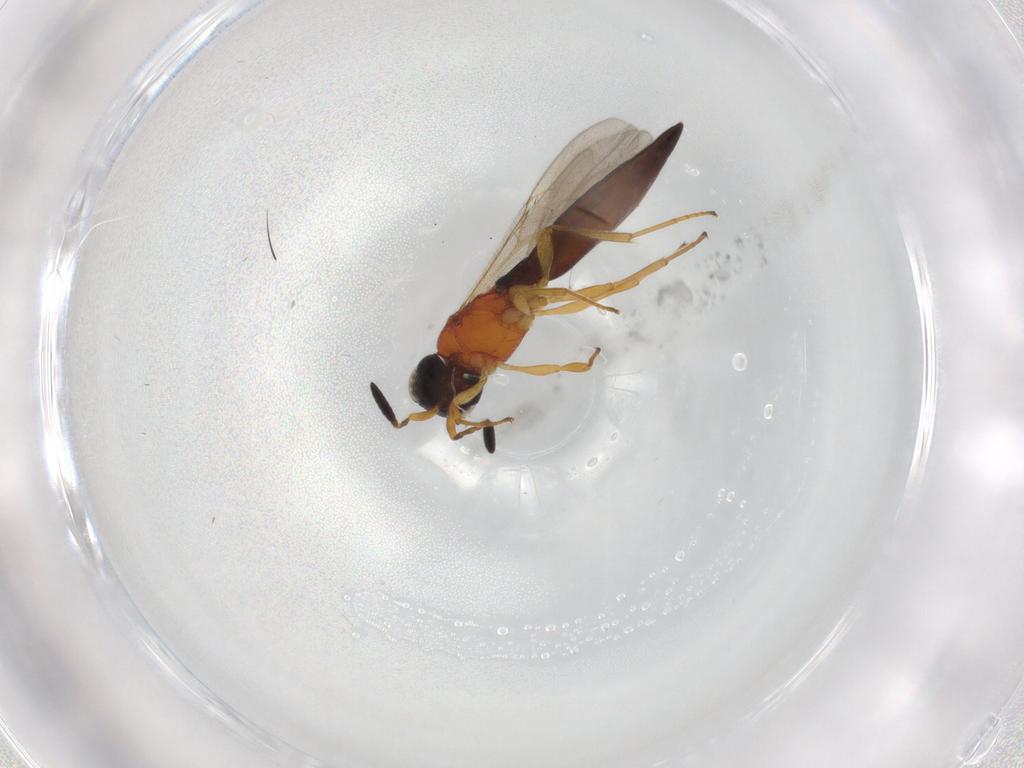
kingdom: Animalia
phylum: Arthropoda
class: Insecta
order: Hymenoptera
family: Scelionidae
